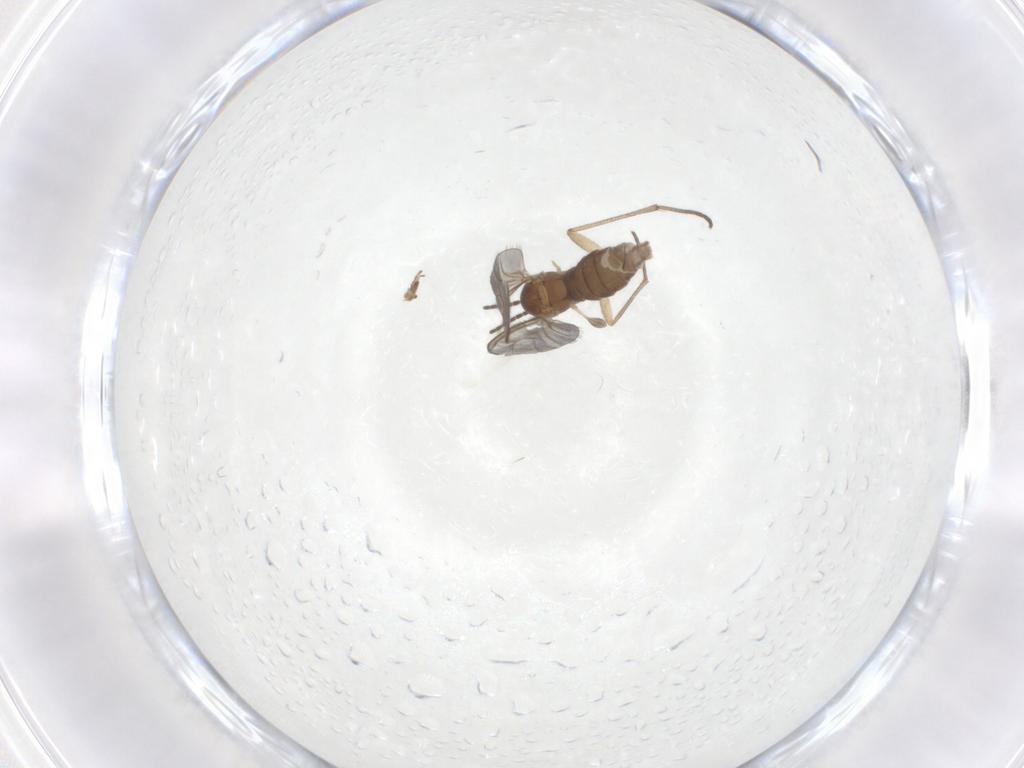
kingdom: Animalia
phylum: Arthropoda
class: Insecta
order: Diptera
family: Sciaridae
